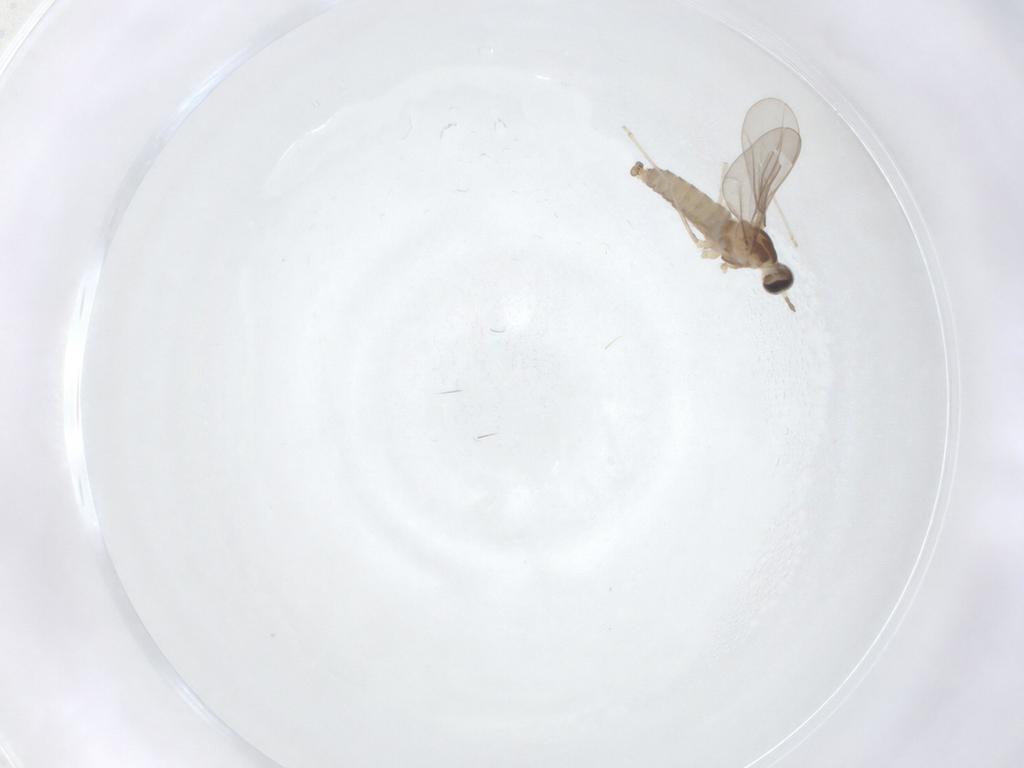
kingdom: Animalia
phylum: Arthropoda
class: Insecta
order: Diptera
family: Cecidomyiidae
